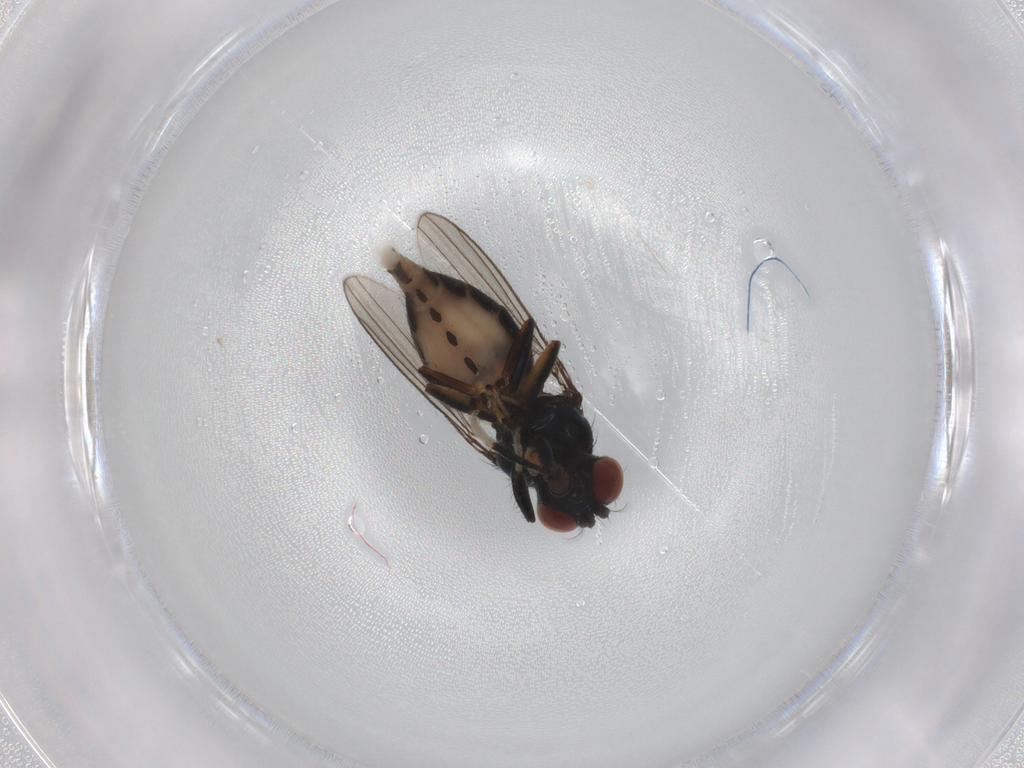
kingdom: Animalia
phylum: Arthropoda
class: Insecta
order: Diptera
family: Ephydridae
